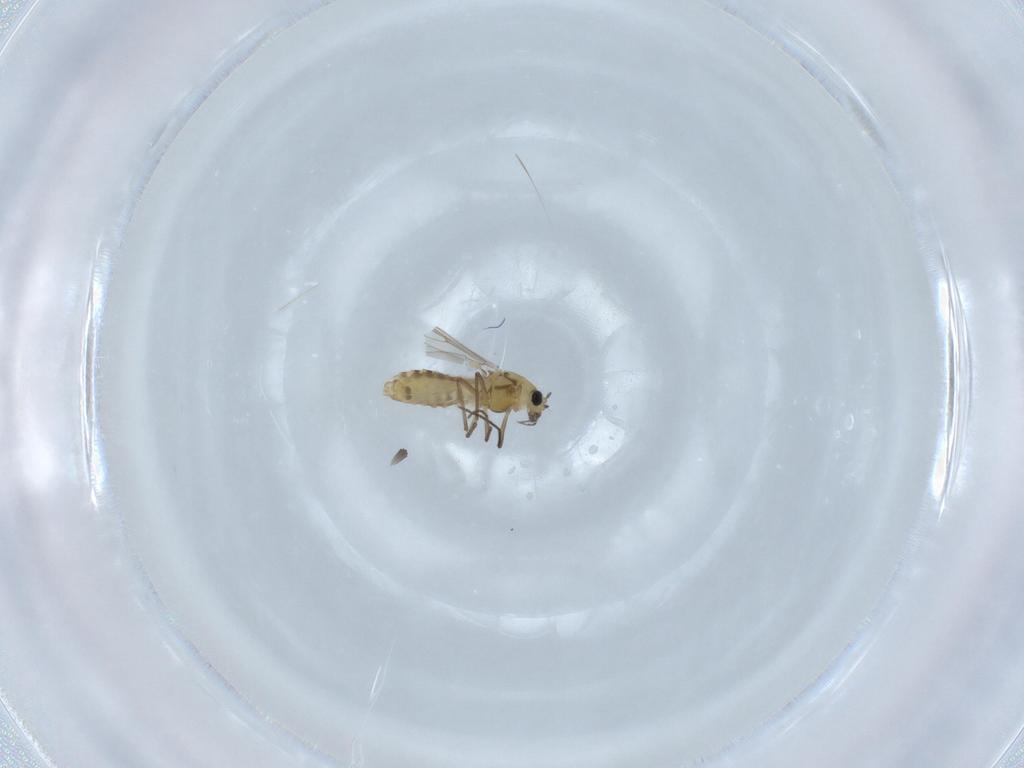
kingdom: Animalia
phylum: Arthropoda
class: Insecta
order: Diptera
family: Chironomidae
